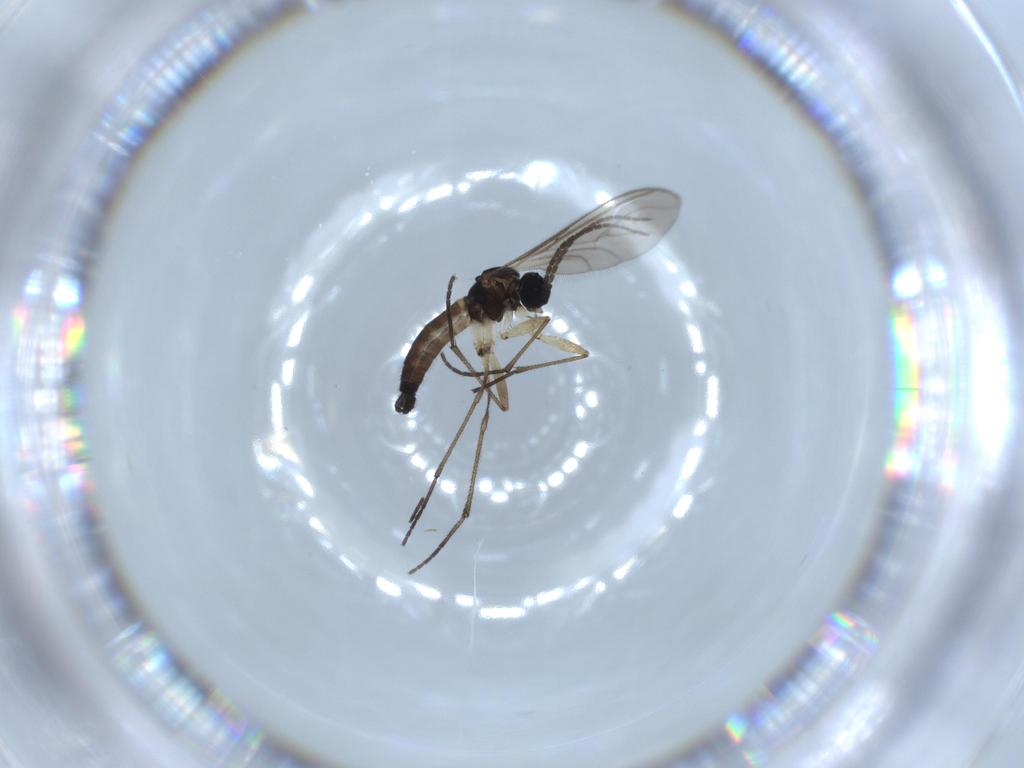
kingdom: Animalia
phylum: Arthropoda
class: Insecta
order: Diptera
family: Sciaridae
